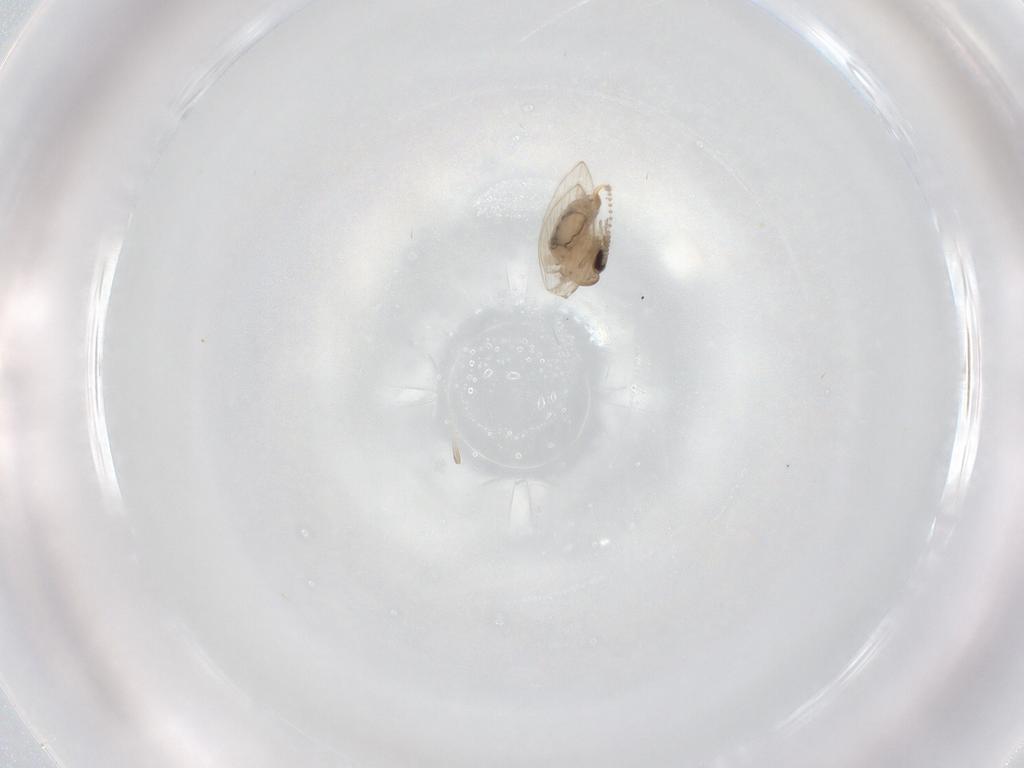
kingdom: Animalia
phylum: Arthropoda
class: Insecta
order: Diptera
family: Psychodidae
